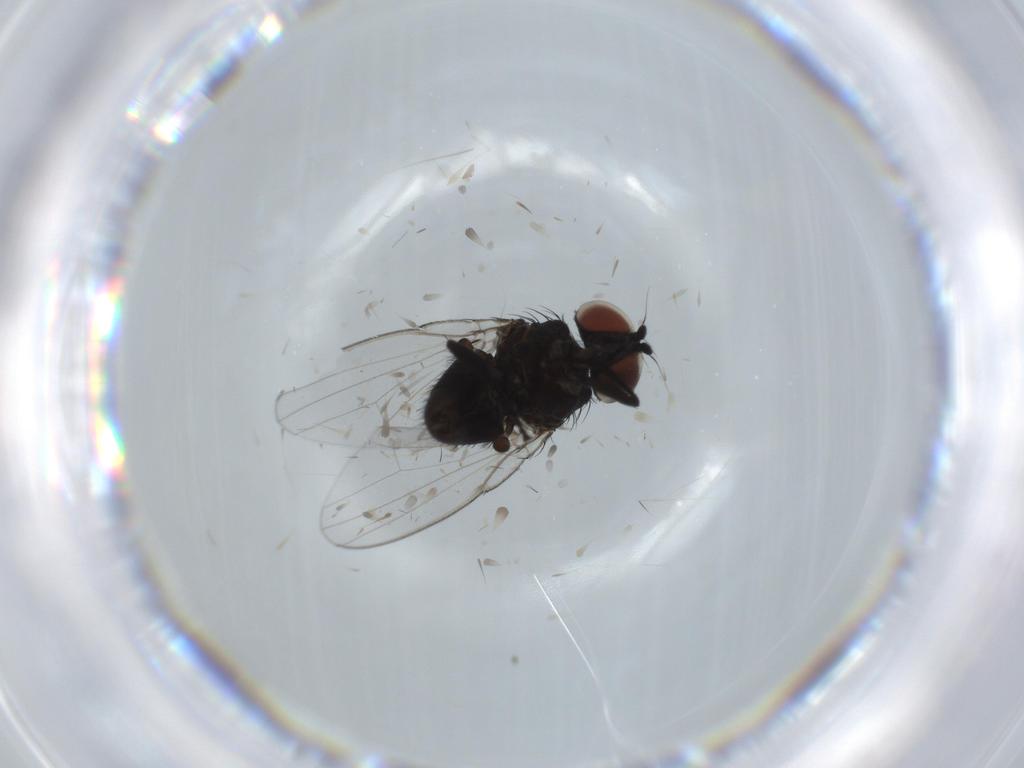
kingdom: Animalia
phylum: Arthropoda
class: Insecta
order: Diptera
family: Milichiidae
